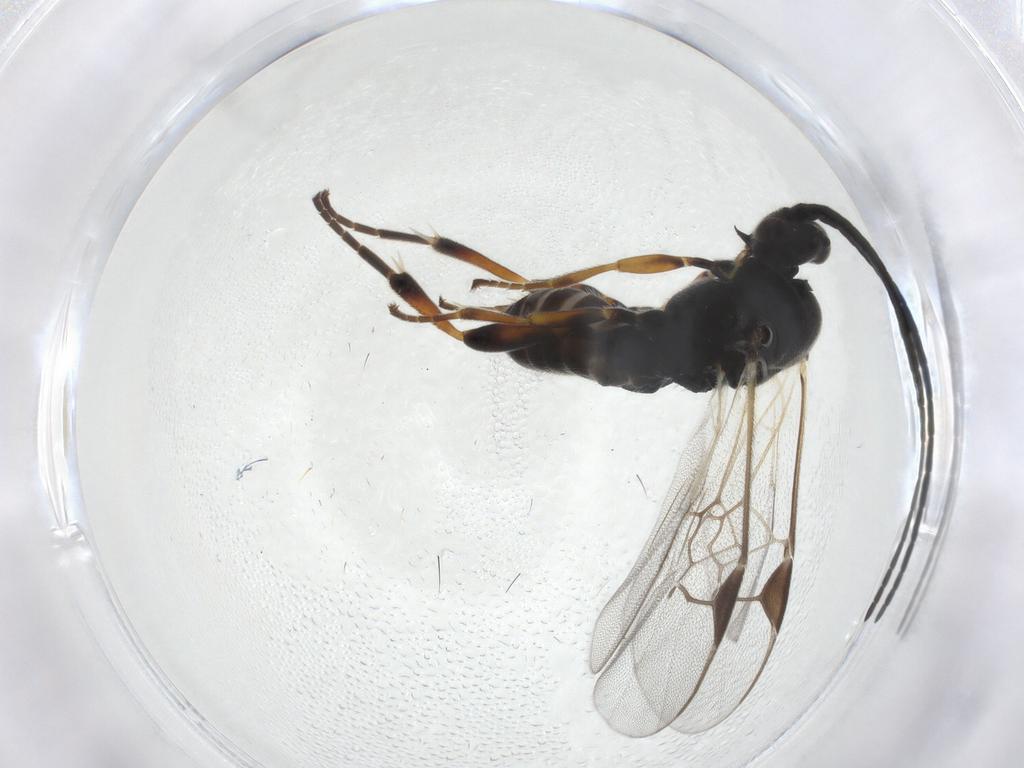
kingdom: Animalia
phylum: Arthropoda
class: Insecta
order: Hymenoptera
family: Braconidae
